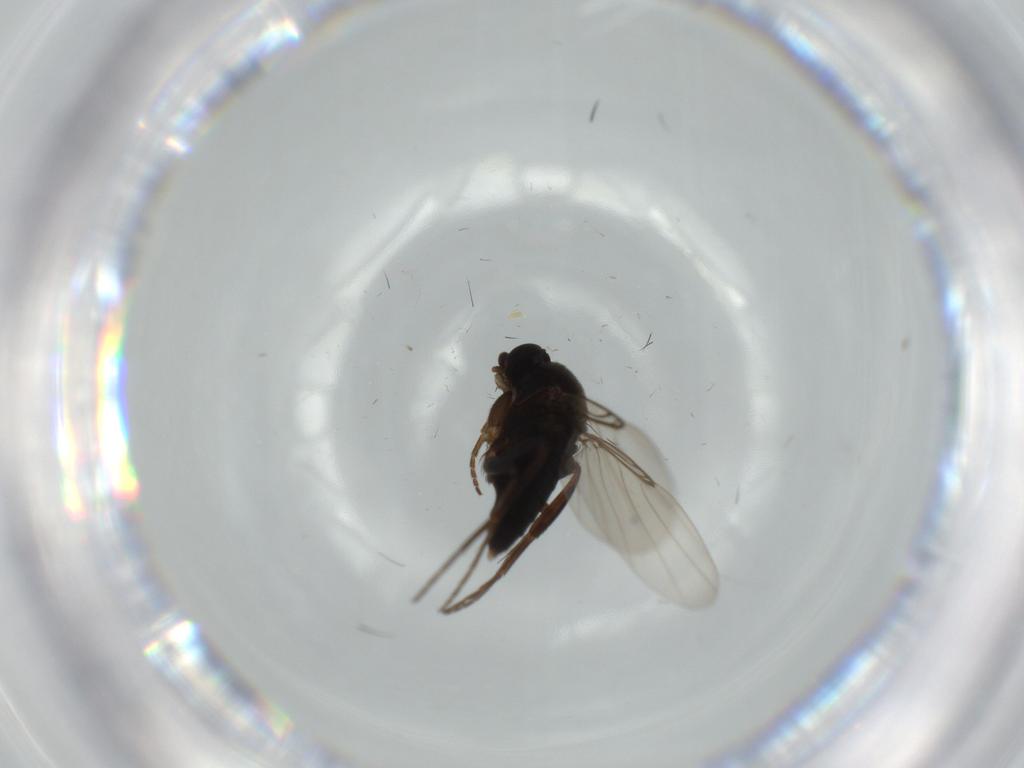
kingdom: Animalia
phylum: Arthropoda
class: Insecta
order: Diptera
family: Phoridae
